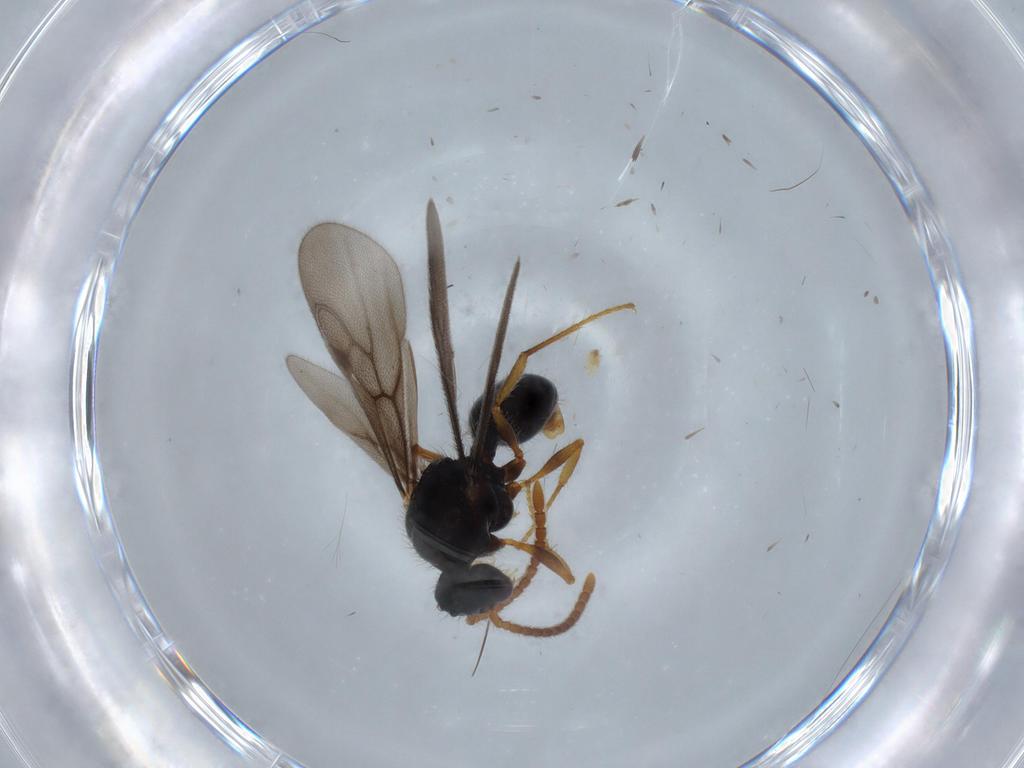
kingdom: Animalia
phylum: Arthropoda
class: Insecta
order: Hymenoptera
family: Formicidae
